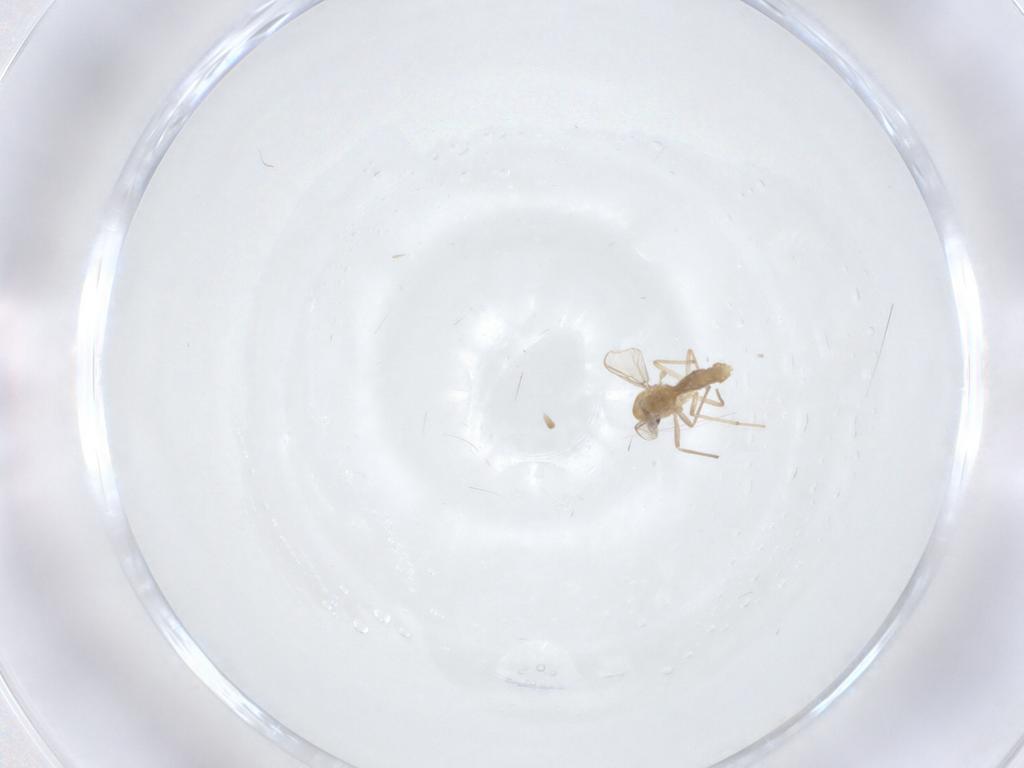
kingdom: Animalia
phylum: Arthropoda
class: Insecta
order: Diptera
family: Chironomidae
